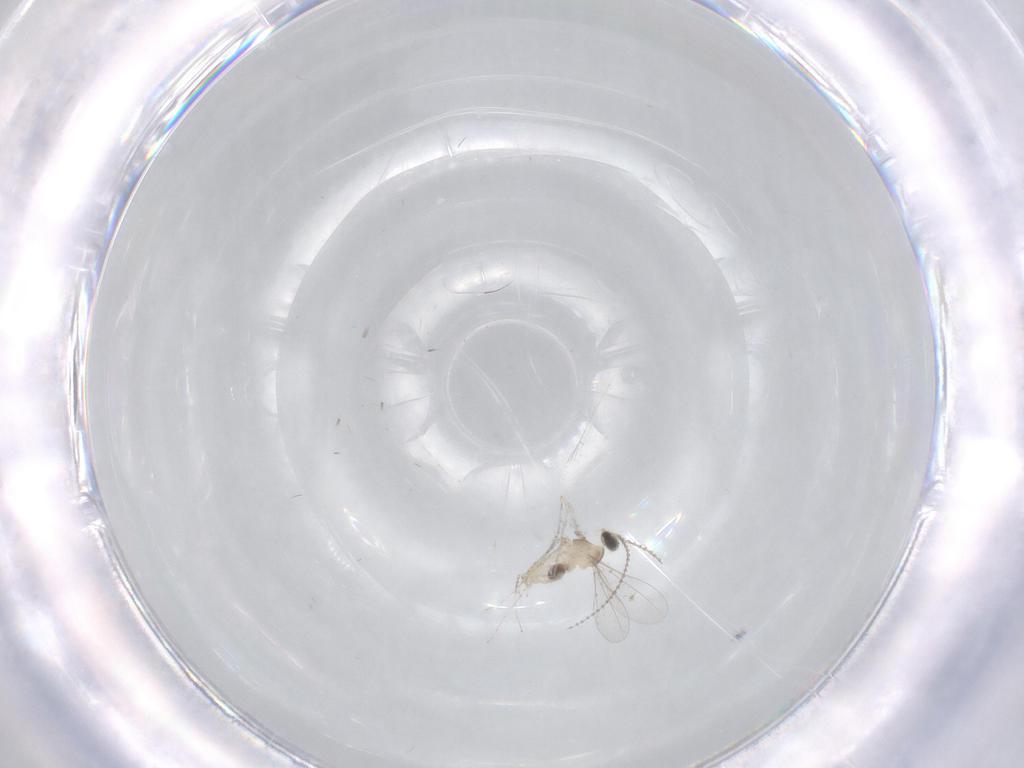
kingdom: Animalia
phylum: Arthropoda
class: Insecta
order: Diptera
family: Cecidomyiidae
